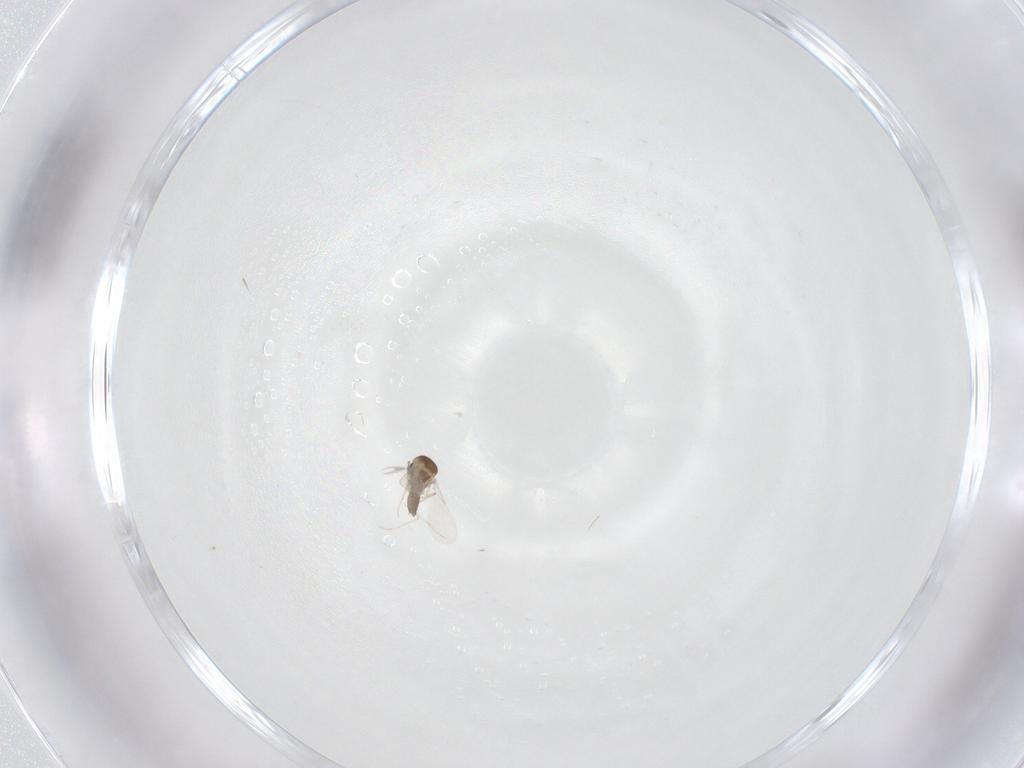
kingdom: Animalia
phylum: Arthropoda
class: Insecta
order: Diptera
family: Ceratopogonidae
